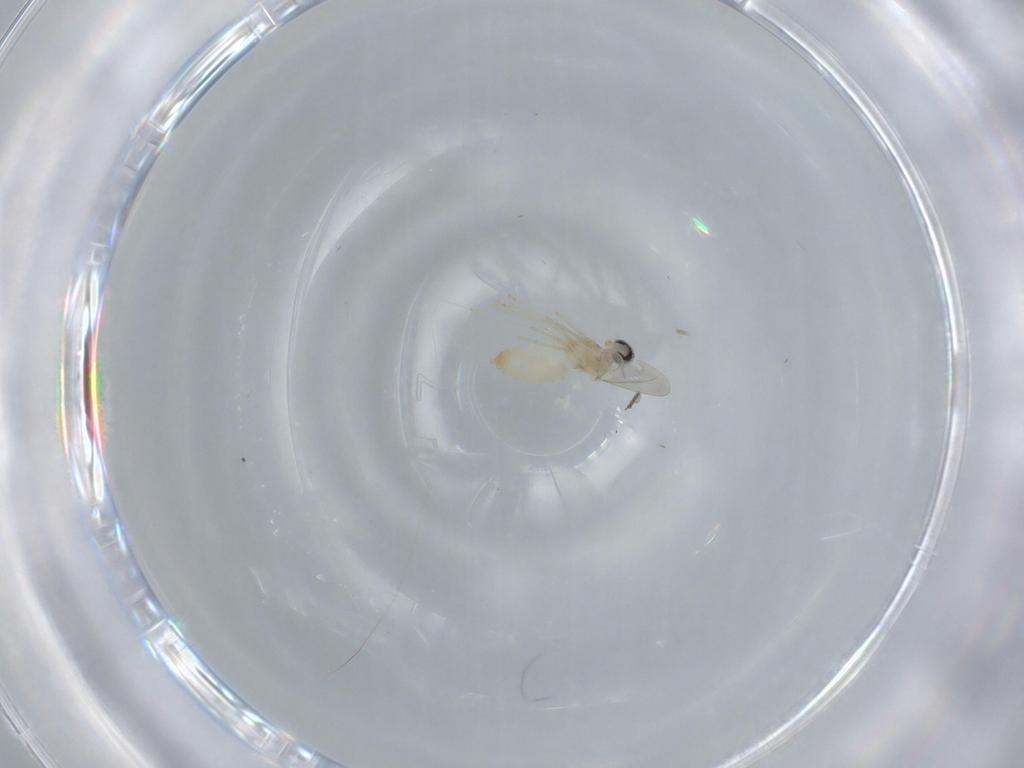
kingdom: Animalia
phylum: Arthropoda
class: Insecta
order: Diptera
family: Cecidomyiidae
